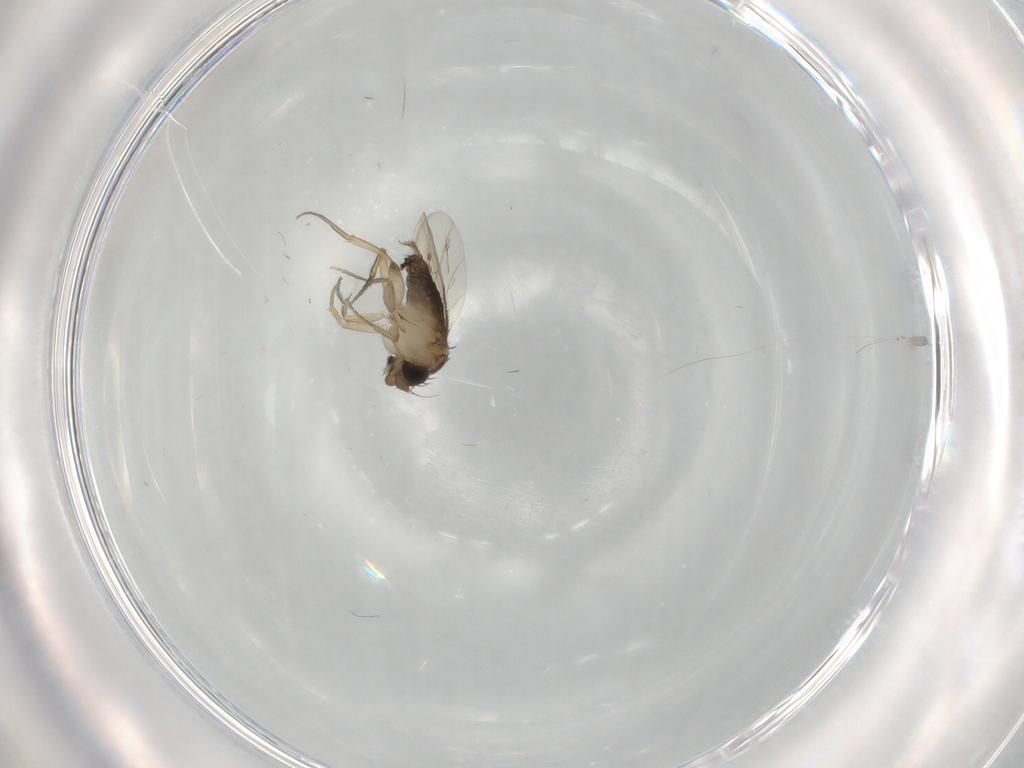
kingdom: Animalia
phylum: Arthropoda
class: Insecta
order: Diptera
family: Cecidomyiidae
